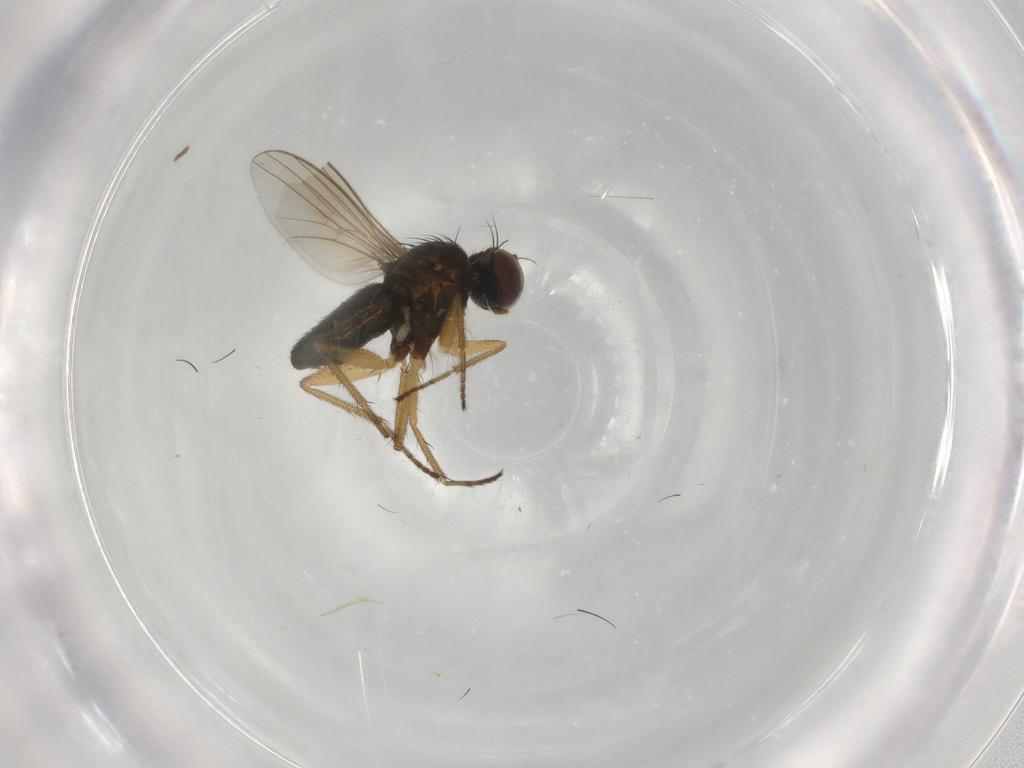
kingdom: Animalia
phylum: Arthropoda
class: Insecta
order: Diptera
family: Dolichopodidae
